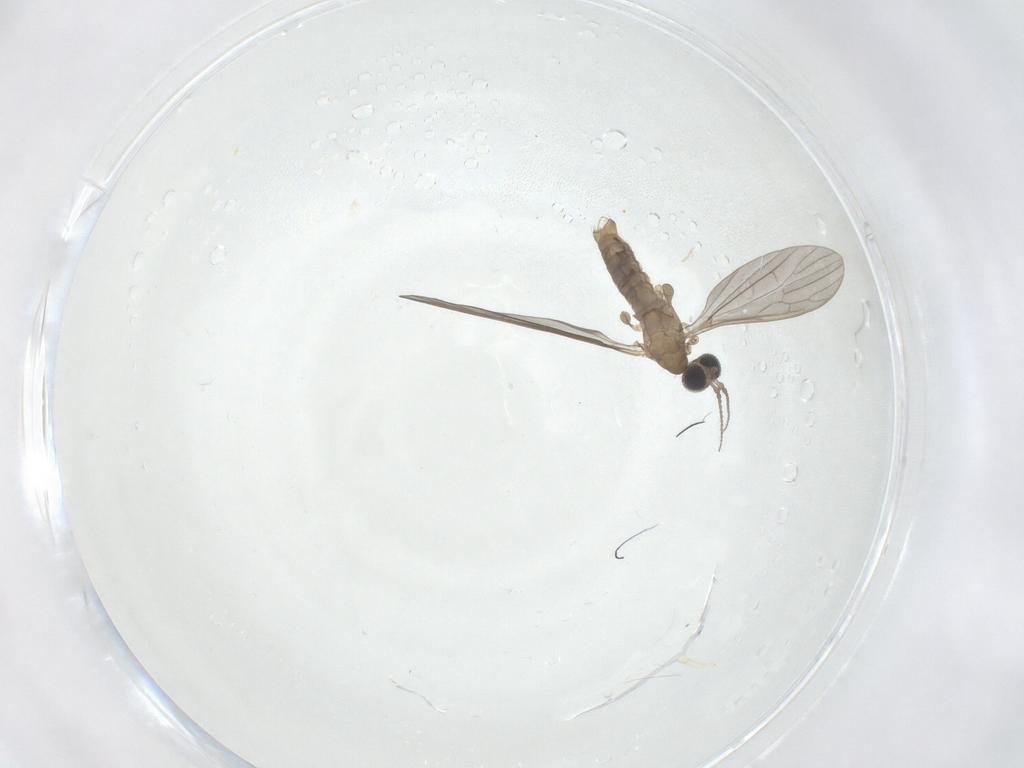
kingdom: Animalia
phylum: Arthropoda
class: Insecta
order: Diptera
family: Limoniidae
